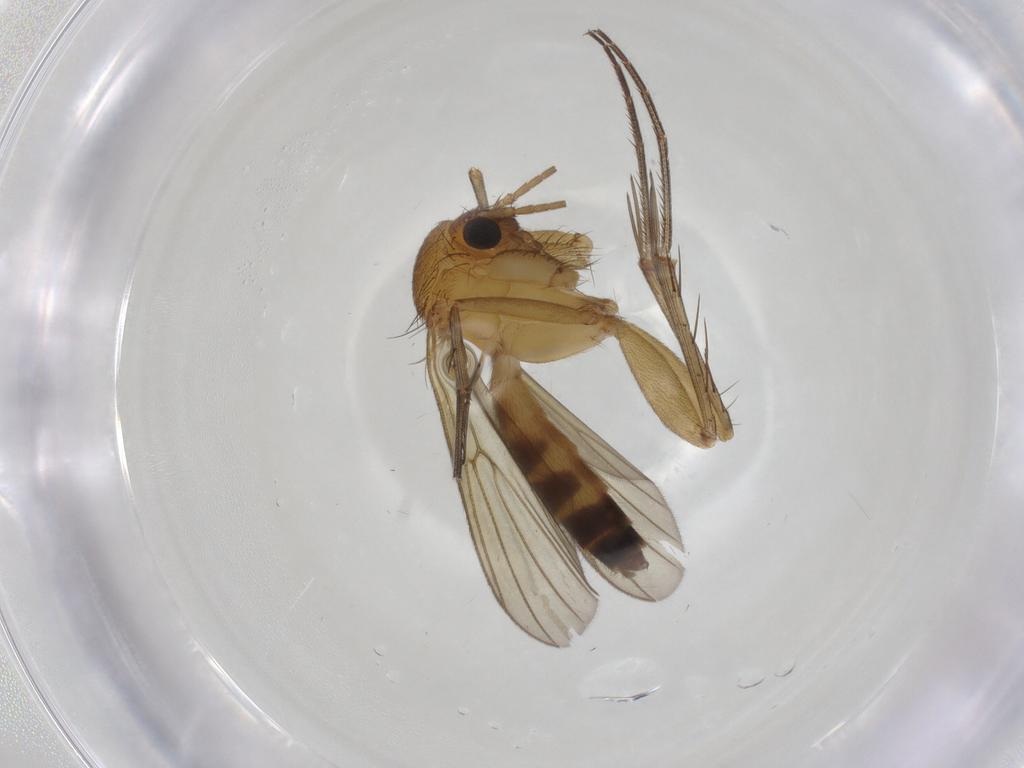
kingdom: Animalia
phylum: Arthropoda
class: Insecta
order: Diptera
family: Mycetophilidae
